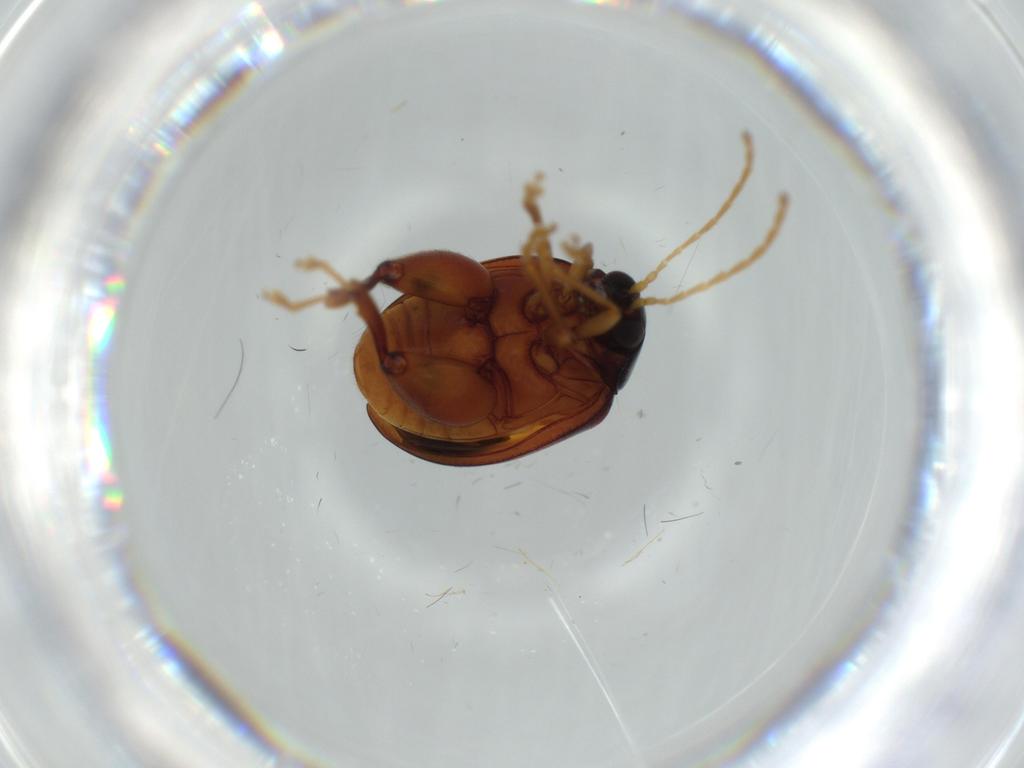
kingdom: Animalia
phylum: Arthropoda
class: Insecta
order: Coleoptera
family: Chrysomelidae
